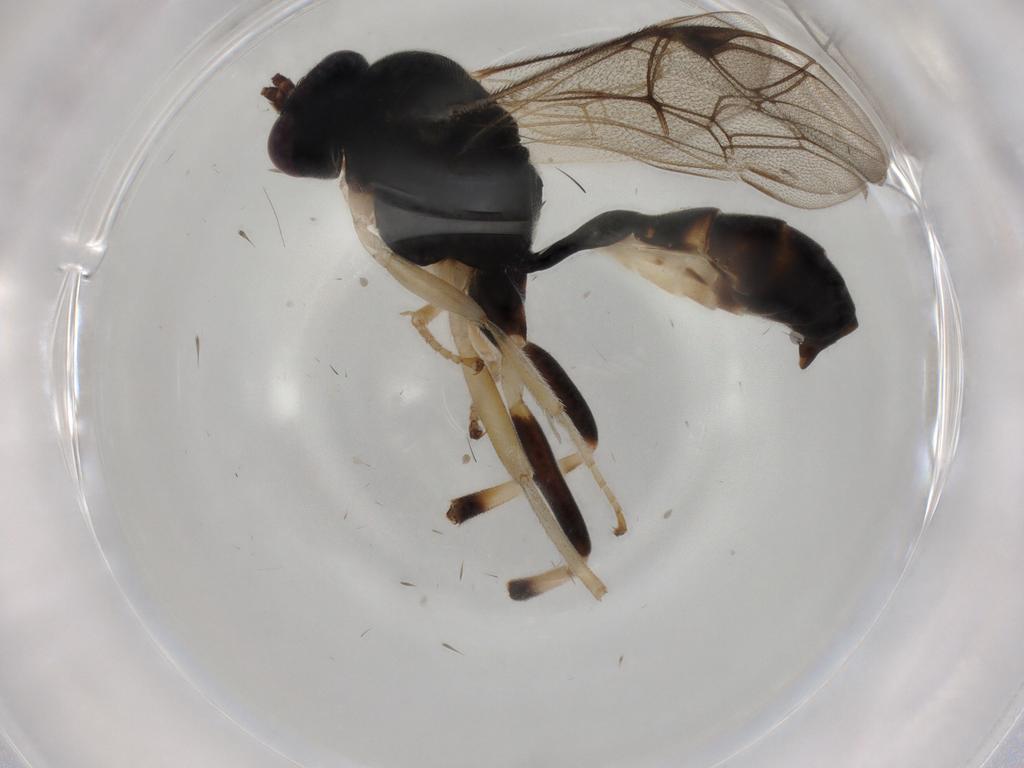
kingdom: Animalia
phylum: Arthropoda
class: Insecta
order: Hymenoptera
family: Ichneumonidae
